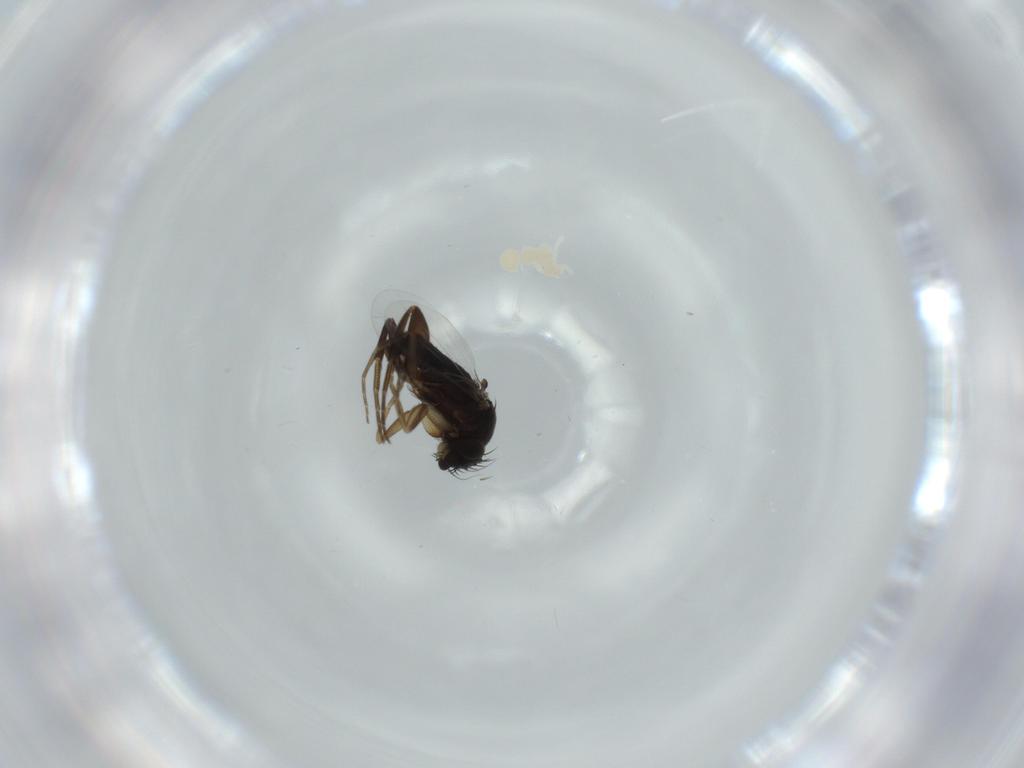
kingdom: Animalia
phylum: Arthropoda
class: Insecta
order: Diptera
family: Phoridae
